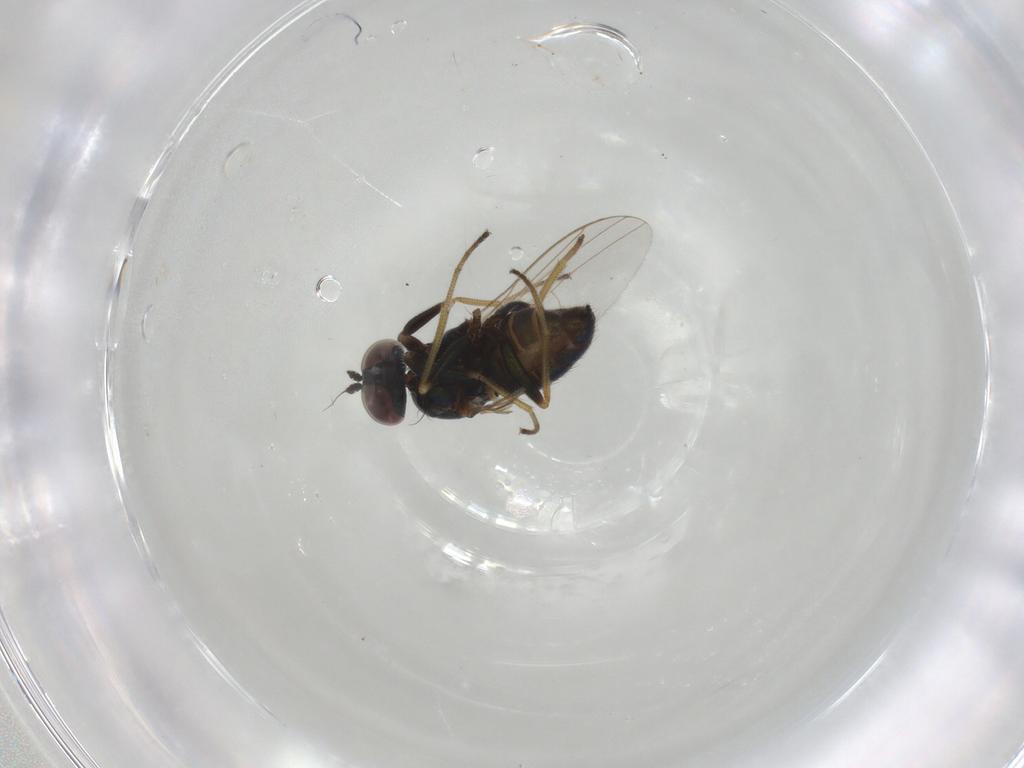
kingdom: Animalia
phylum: Arthropoda
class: Insecta
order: Diptera
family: Dolichopodidae
